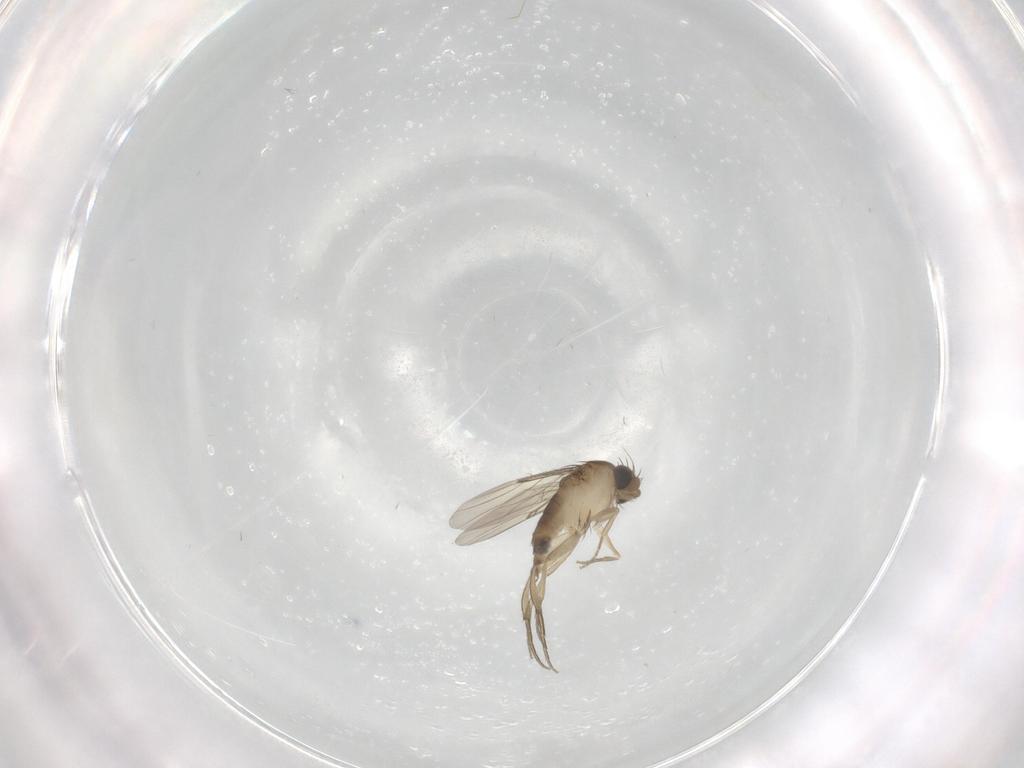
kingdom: Animalia
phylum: Arthropoda
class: Insecta
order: Diptera
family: Phoridae
